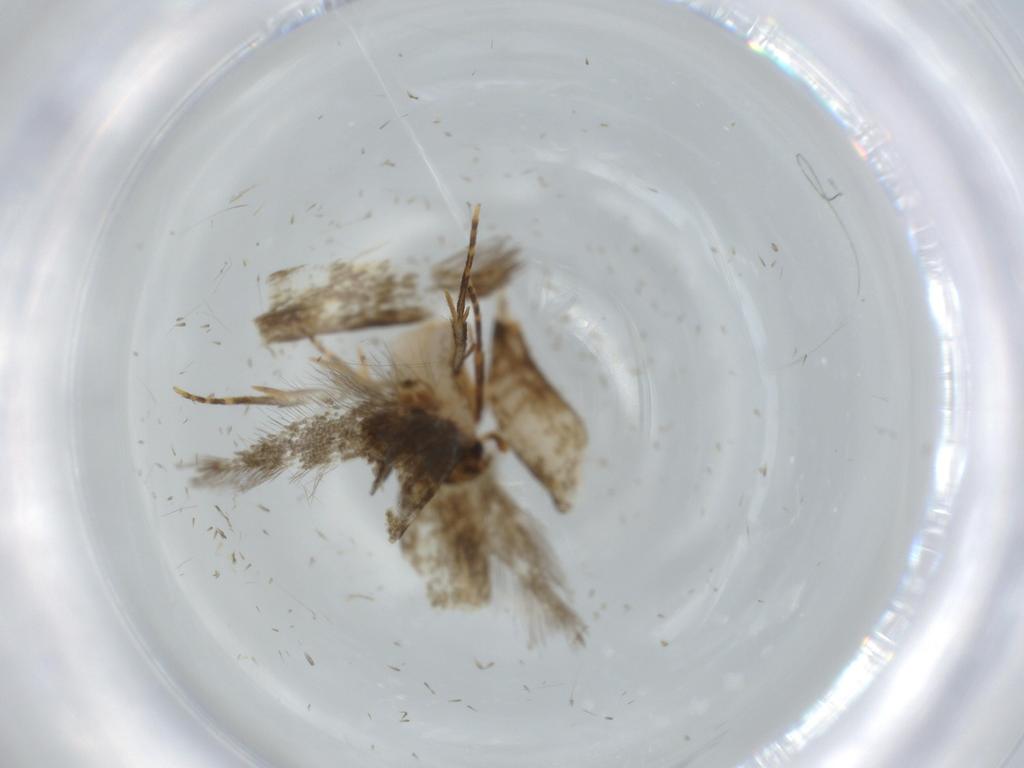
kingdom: Animalia
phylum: Arthropoda
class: Insecta
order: Lepidoptera
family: Tineidae
